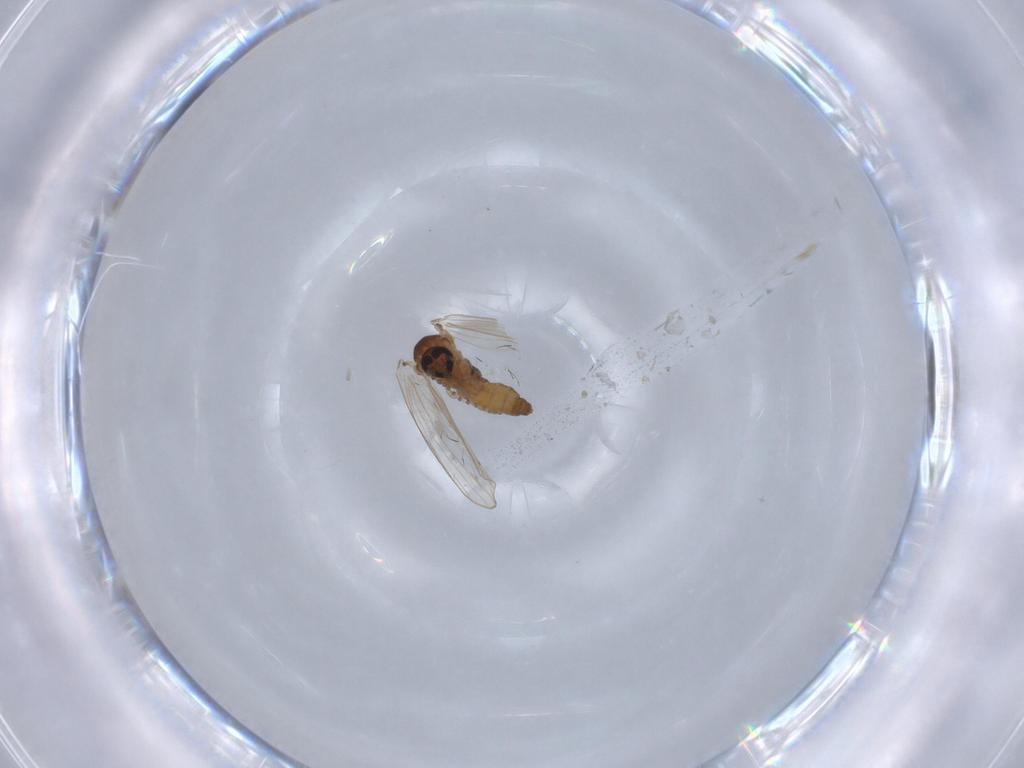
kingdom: Animalia
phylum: Arthropoda
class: Insecta
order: Diptera
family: Psychodidae
